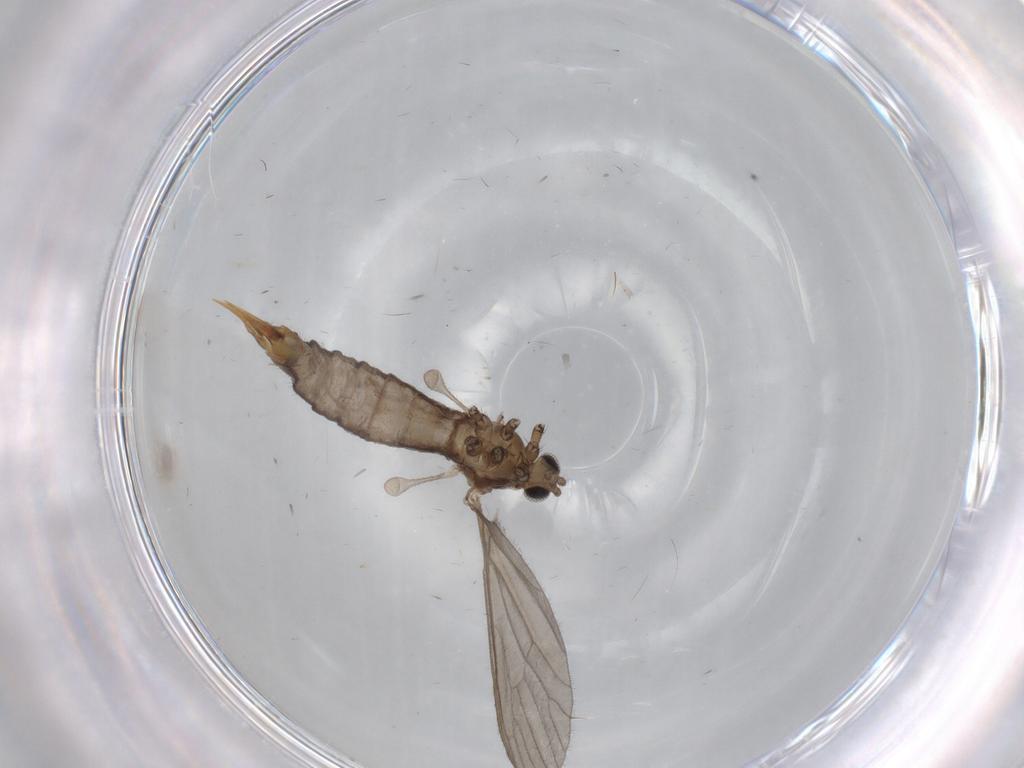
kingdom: Animalia
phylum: Arthropoda
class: Insecta
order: Diptera
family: Limoniidae
